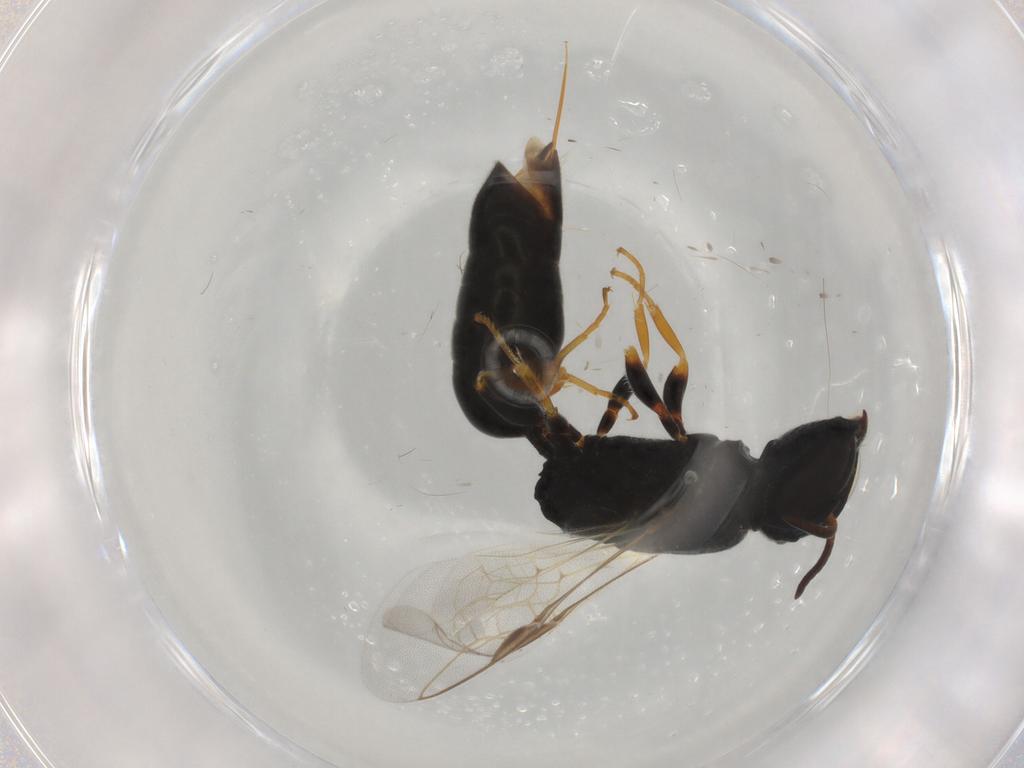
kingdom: Animalia
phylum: Arthropoda
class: Insecta
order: Hymenoptera
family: Crabronidae
